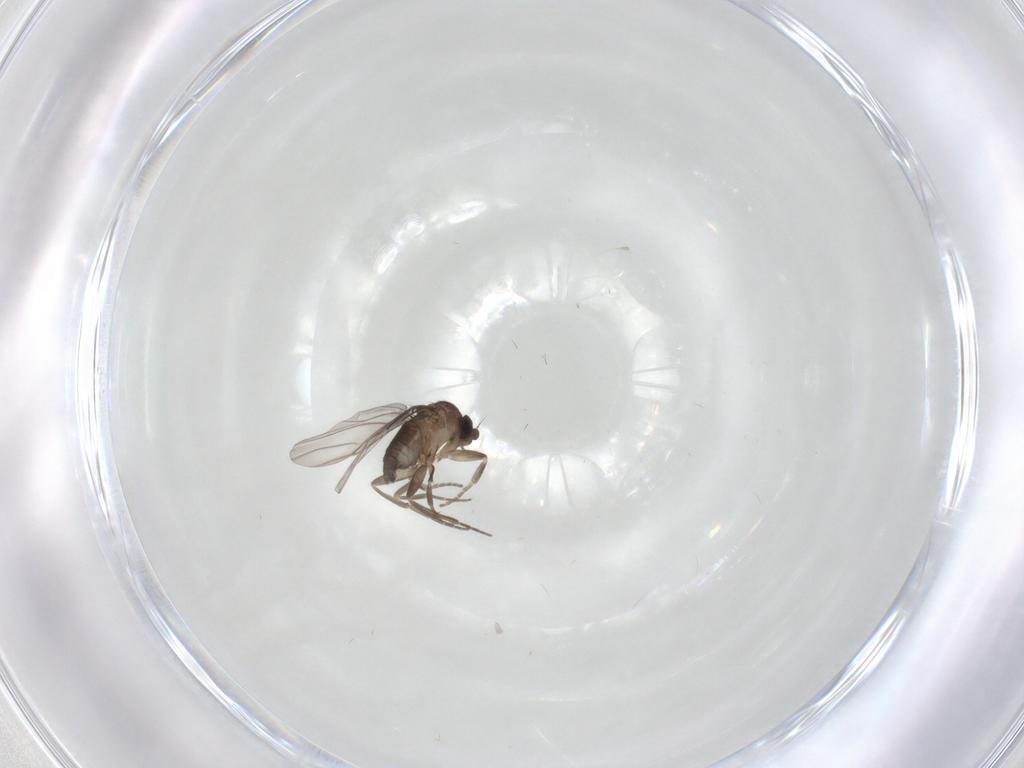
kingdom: Animalia
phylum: Arthropoda
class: Insecta
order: Diptera
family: Phoridae
